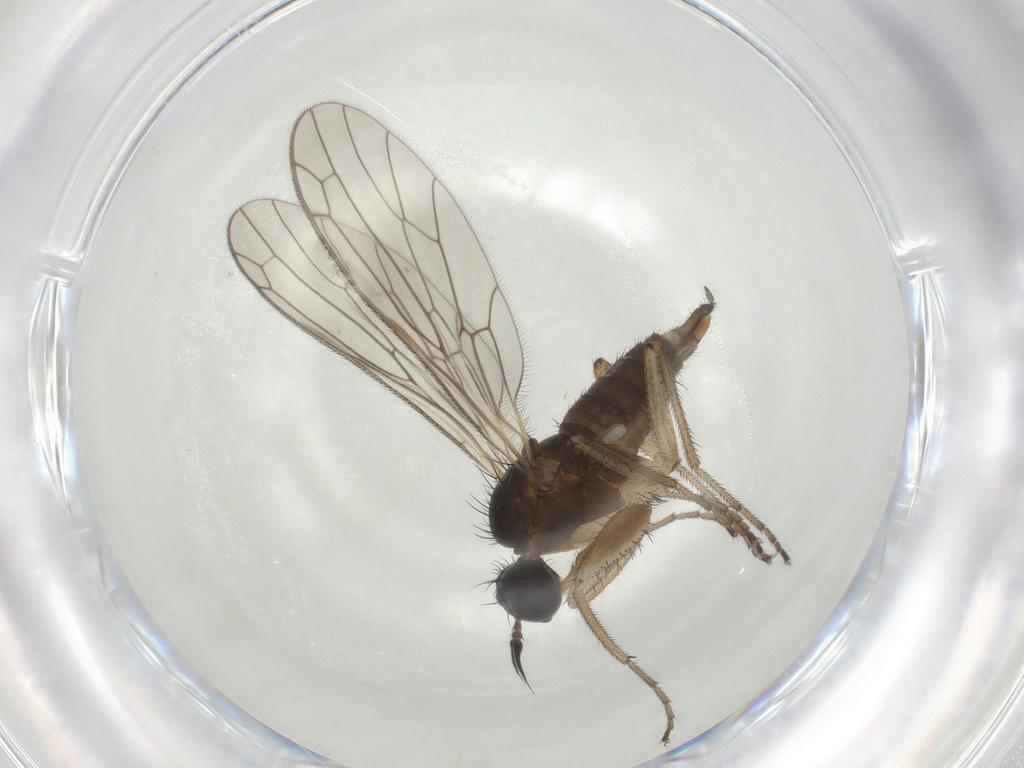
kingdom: Animalia
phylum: Arthropoda
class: Insecta
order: Diptera
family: Empididae
